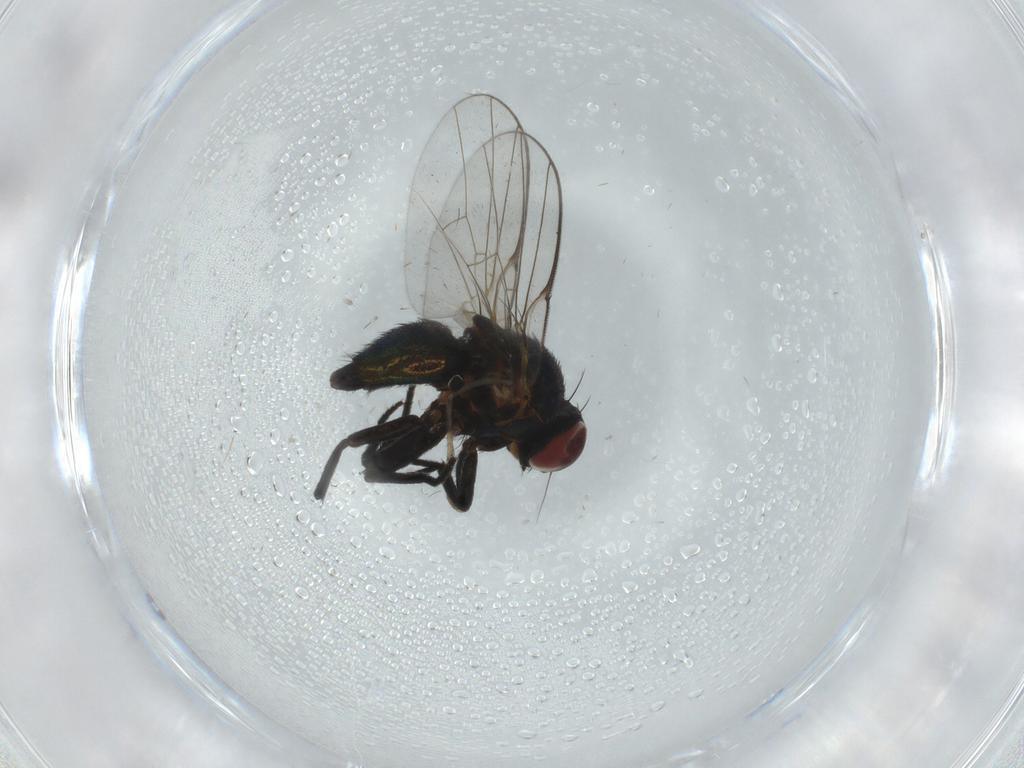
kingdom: Animalia
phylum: Arthropoda
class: Insecta
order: Diptera
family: Agromyzidae
